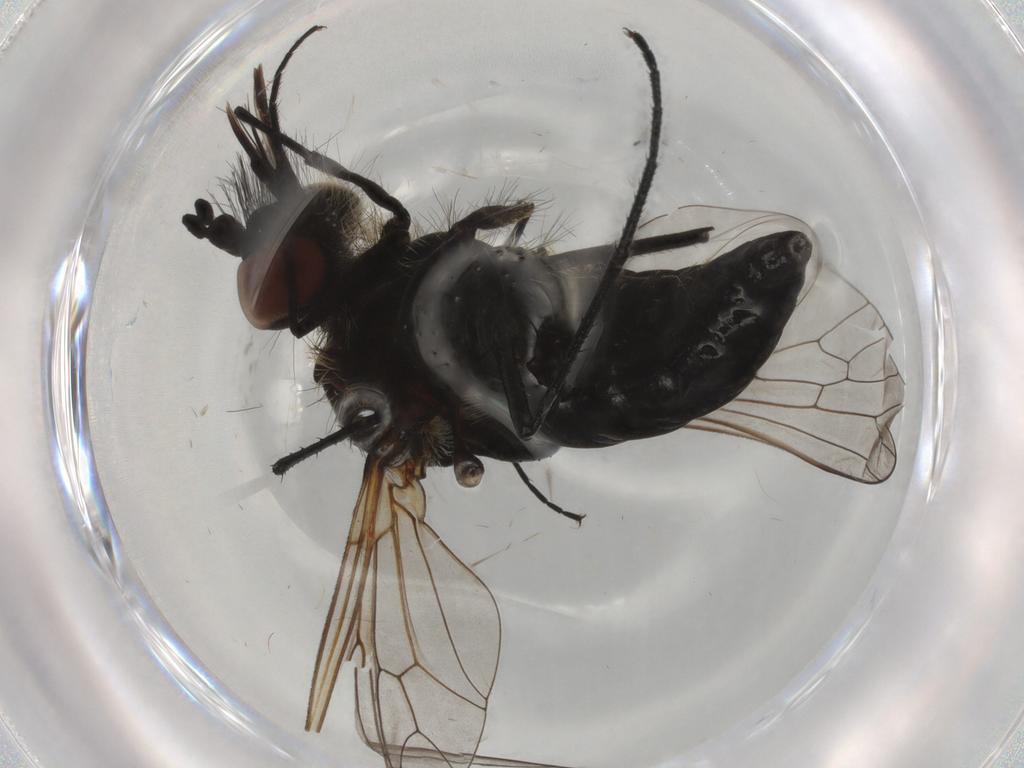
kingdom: Animalia
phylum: Arthropoda
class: Insecta
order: Diptera
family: Bombyliidae
